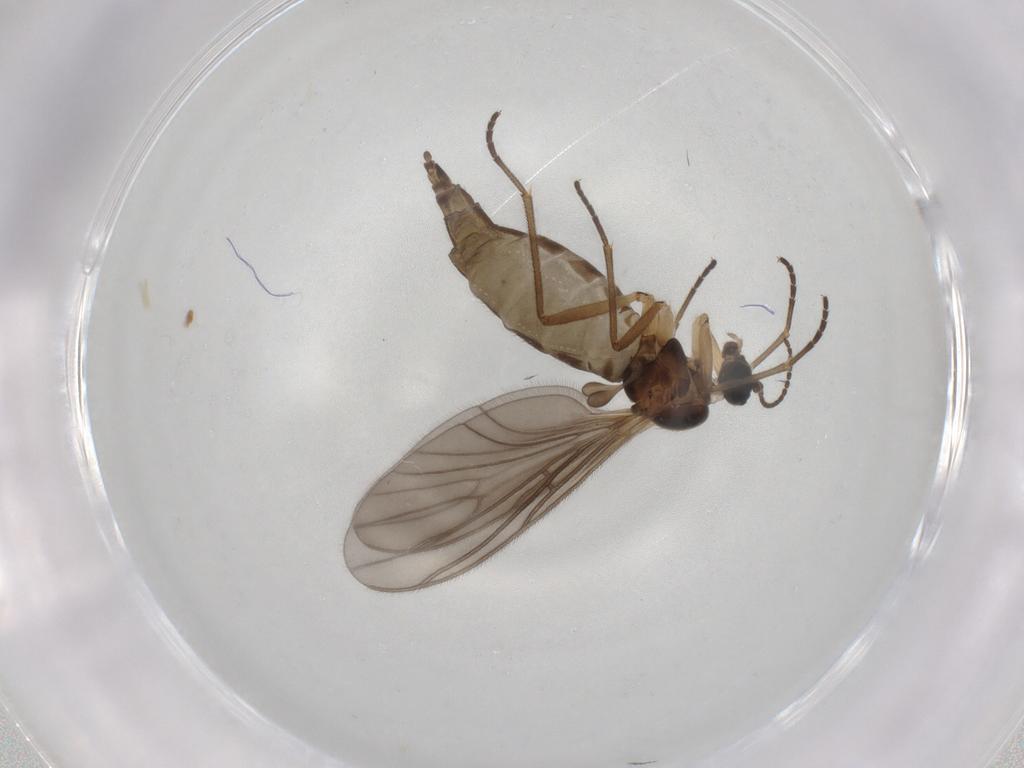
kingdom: Animalia
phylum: Arthropoda
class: Insecta
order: Diptera
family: Sciaridae
